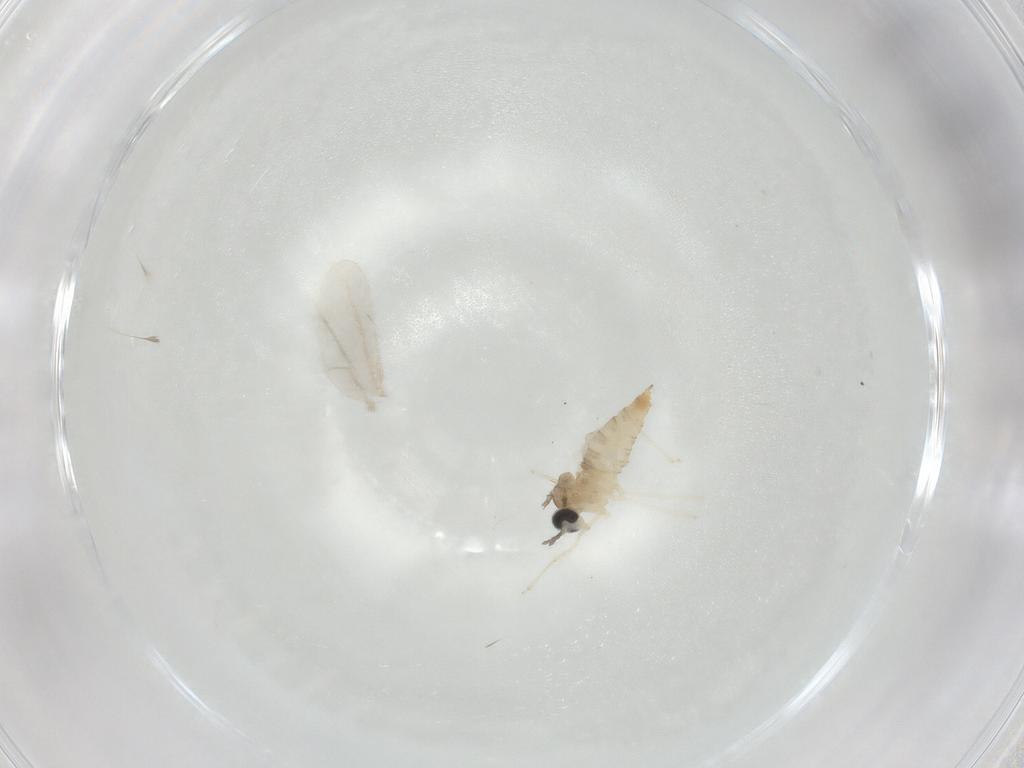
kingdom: Animalia
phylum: Arthropoda
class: Insecta
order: Diptera
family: Cecidomyiidae
